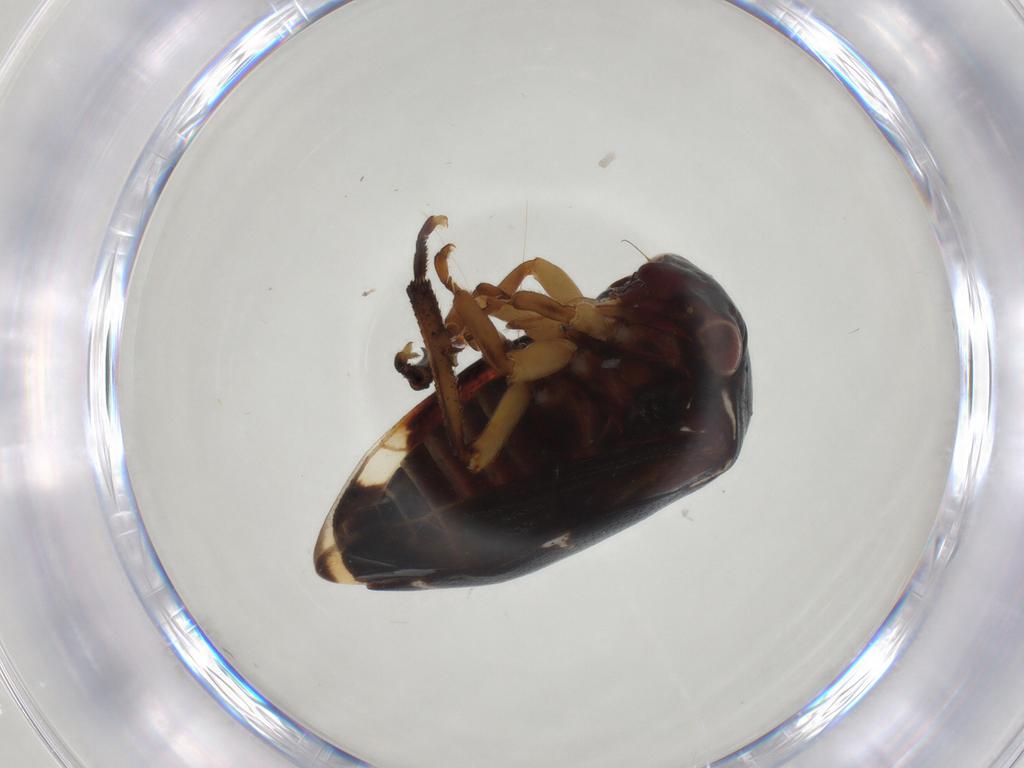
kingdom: Animalia
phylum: Arthropoda
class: Insecta
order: Hemiptera
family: Membracidae
